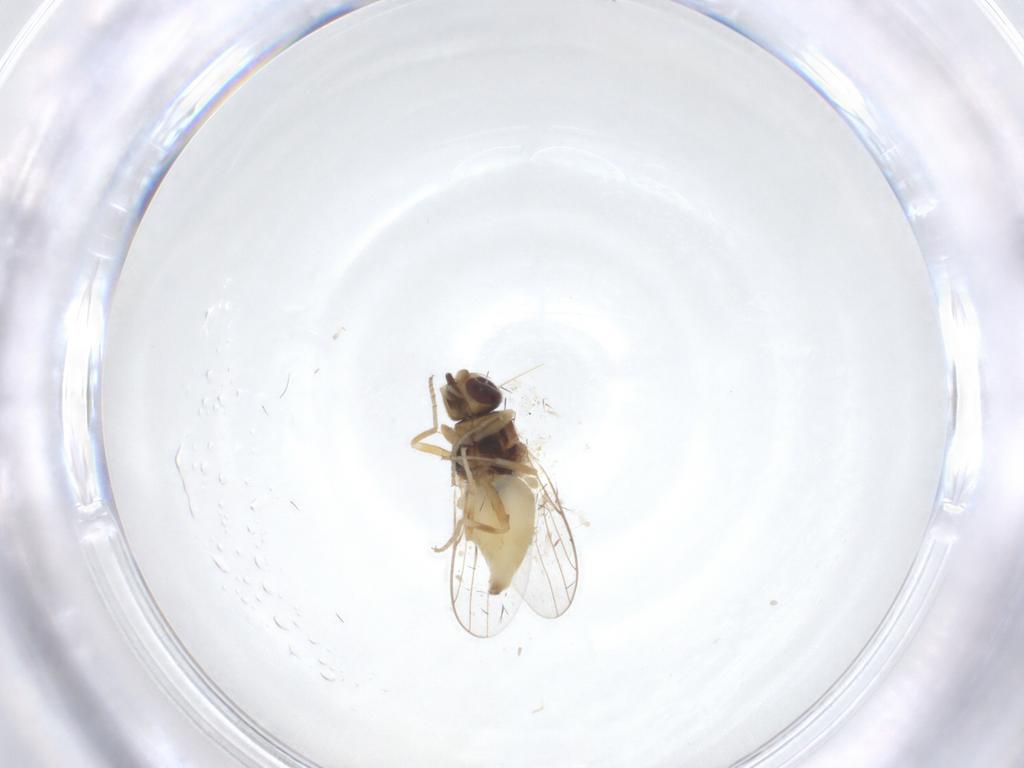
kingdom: Animalia
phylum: Arthropoda
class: Insecta
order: Diptera
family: Chloropidae
